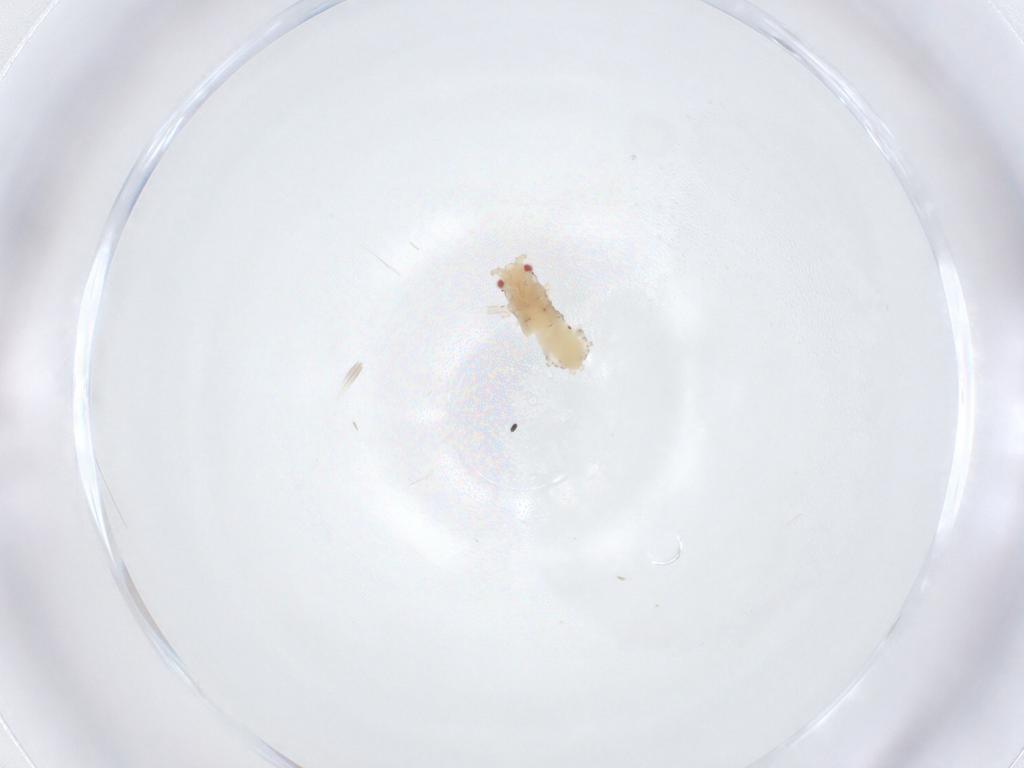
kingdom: Animalia
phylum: Arthropoda
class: Insecta
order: Hemiptera
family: Aphididae
